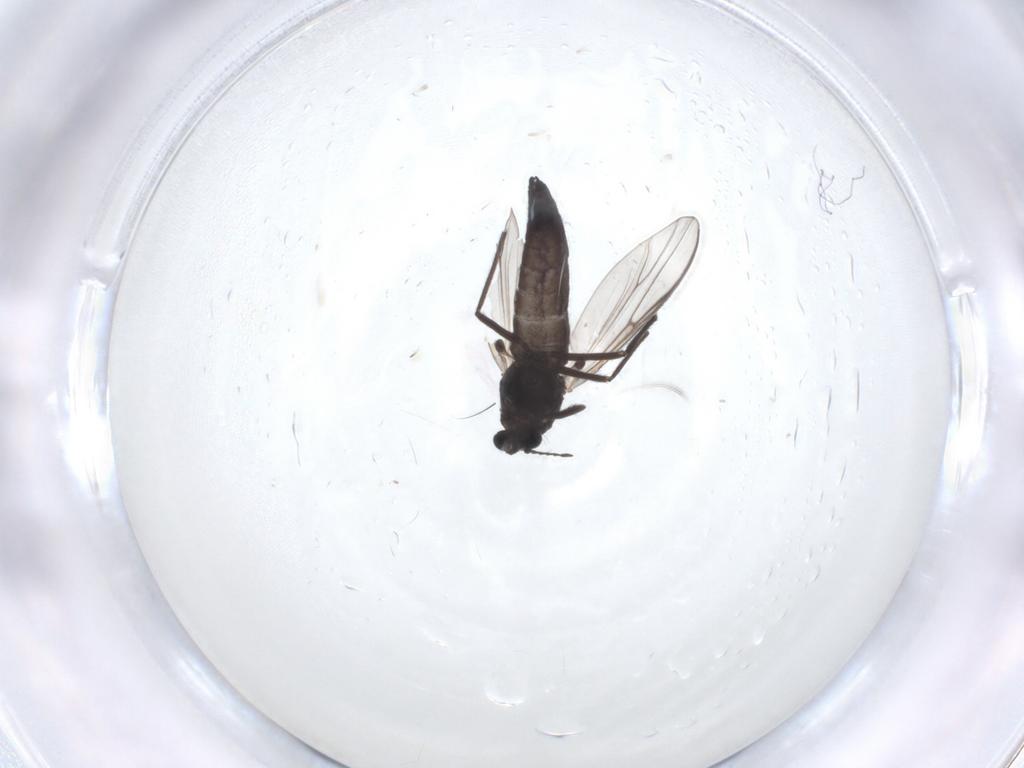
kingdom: Animalia
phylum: Arthropoda
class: Insecta
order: Diptera
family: Chironomidae
